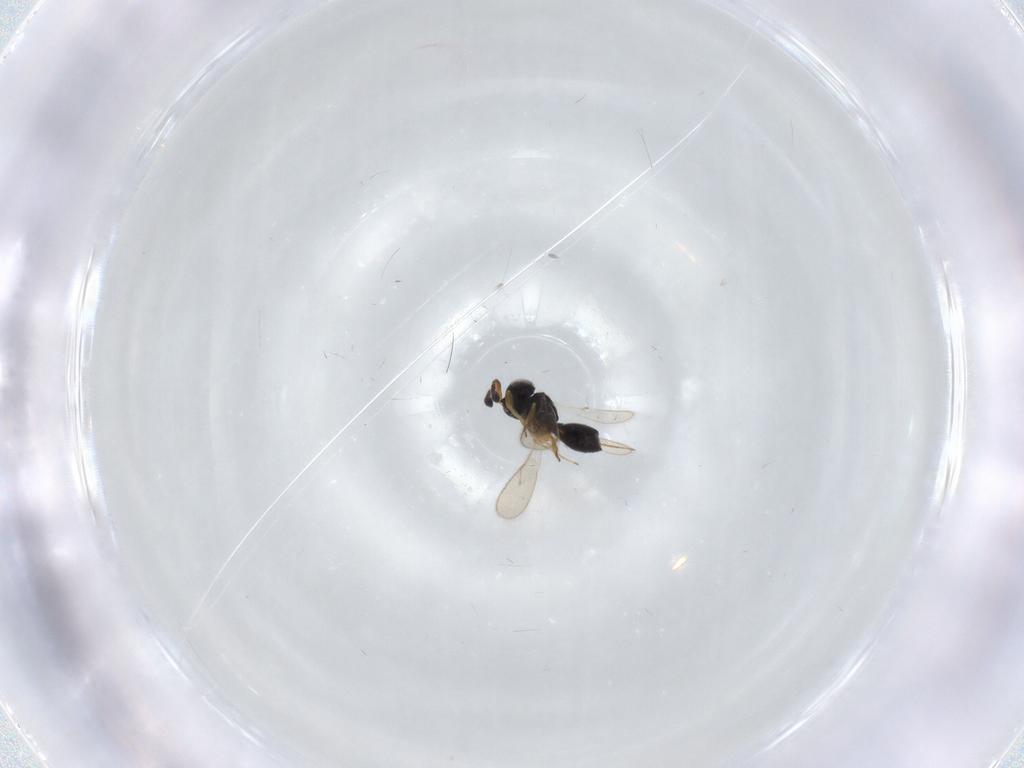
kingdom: Animalia
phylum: Arthropoda
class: Insecta
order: Hymenoptera
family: Scelionidae
